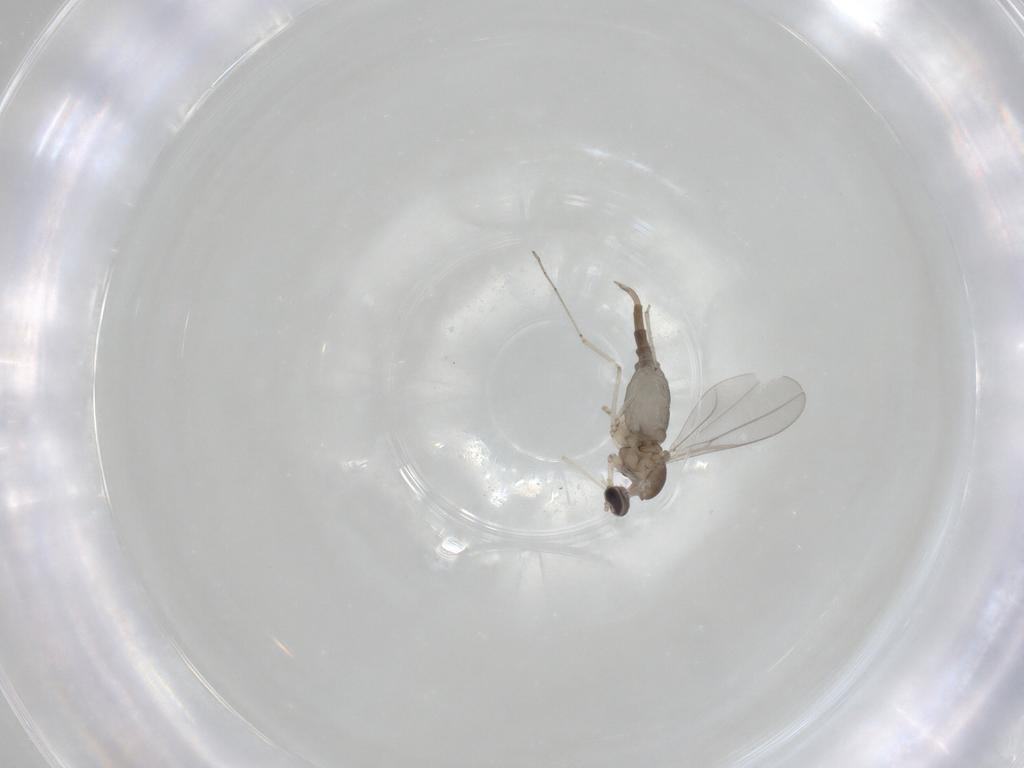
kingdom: Animalia
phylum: Arthropoda
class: Insecta
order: Diptera
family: Cecidomyiidae
